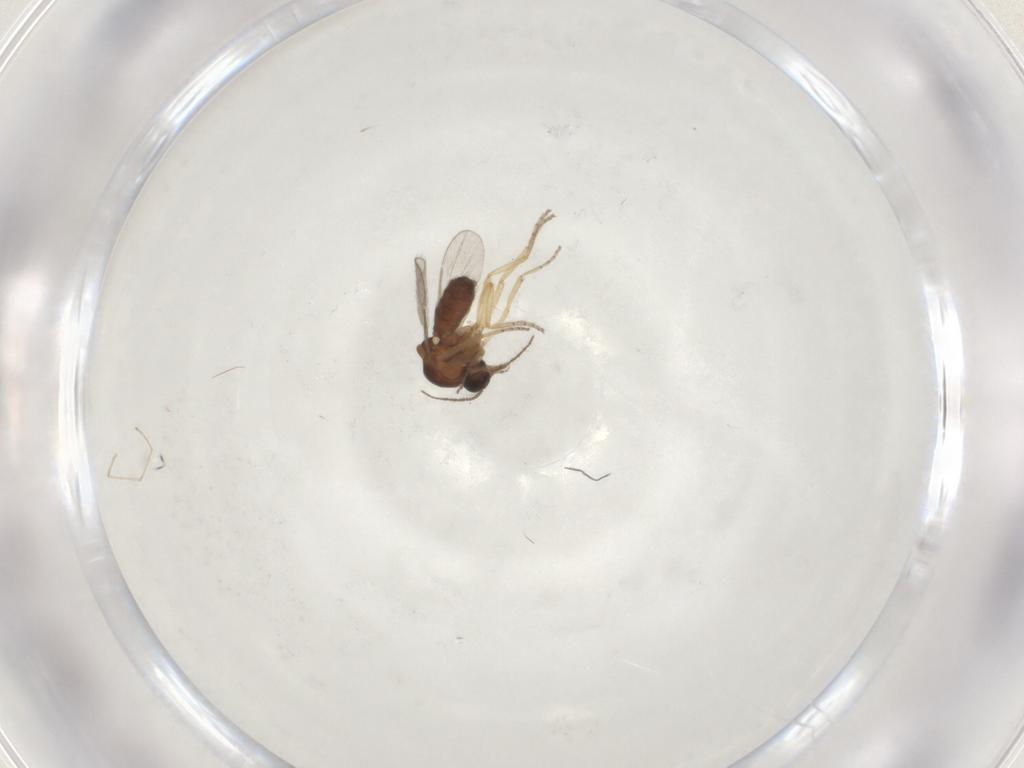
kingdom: Animalia
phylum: Arthropoda
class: Insecta
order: Diptera
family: Ceratopogonidae
